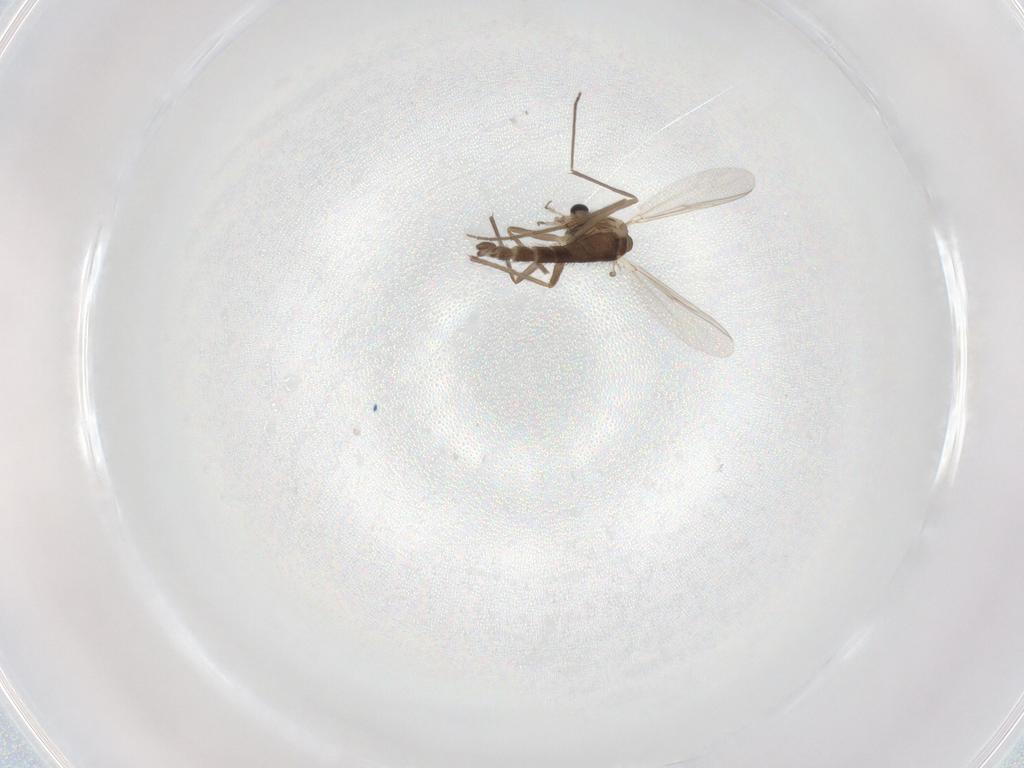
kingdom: Animalia
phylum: Arthropoda
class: Insecta
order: Diptera
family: Chironomidae
